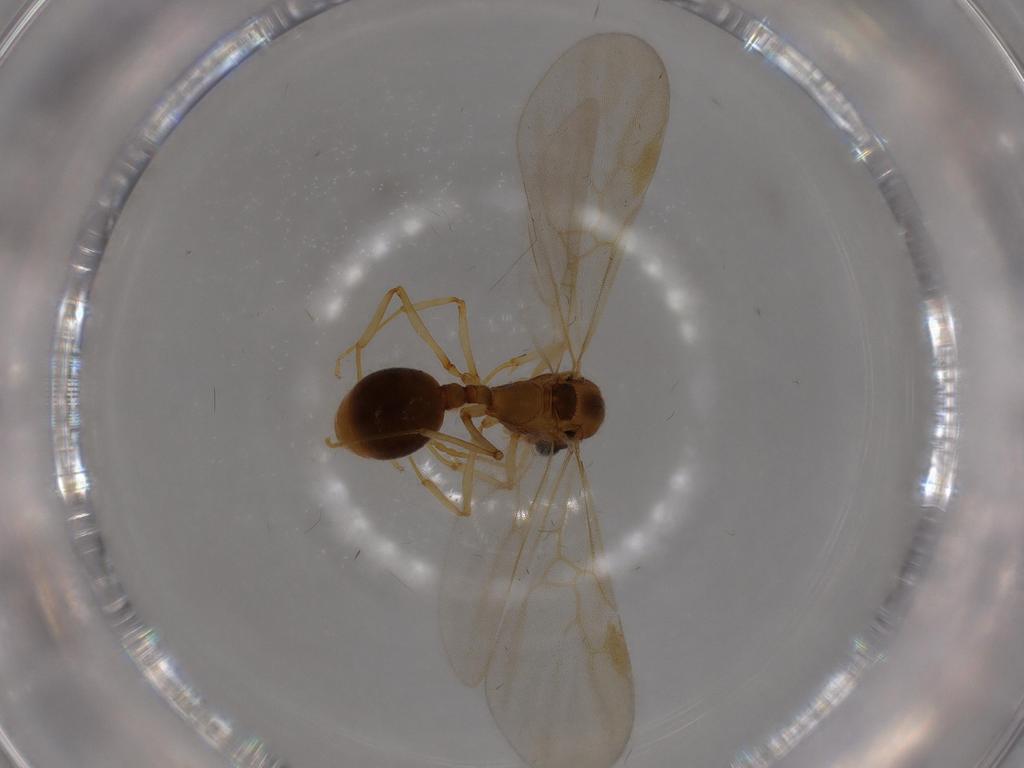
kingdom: Animalia
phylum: Arthropoda
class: Insecta
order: Hymenoptera
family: Formicidae
